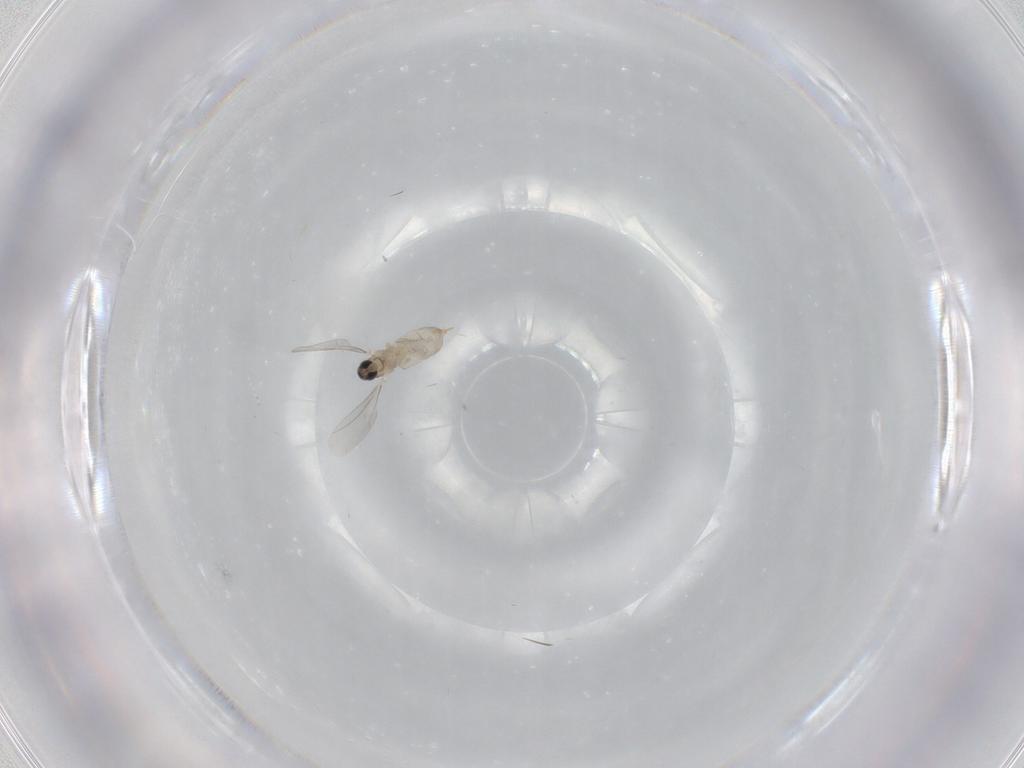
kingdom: Animalia
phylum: Arthropoda
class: Insecta
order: Diptera
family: Cecidomyiidae
